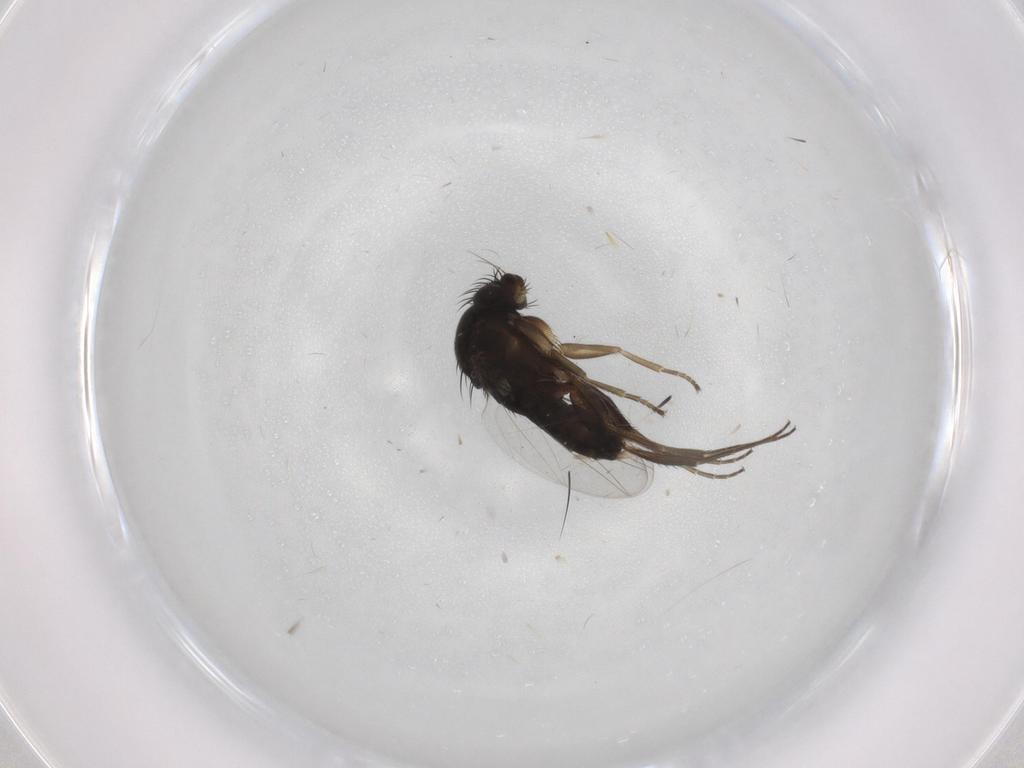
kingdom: Animalia
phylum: Arthropoda
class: Insecta
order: Diptera
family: Phoridae
